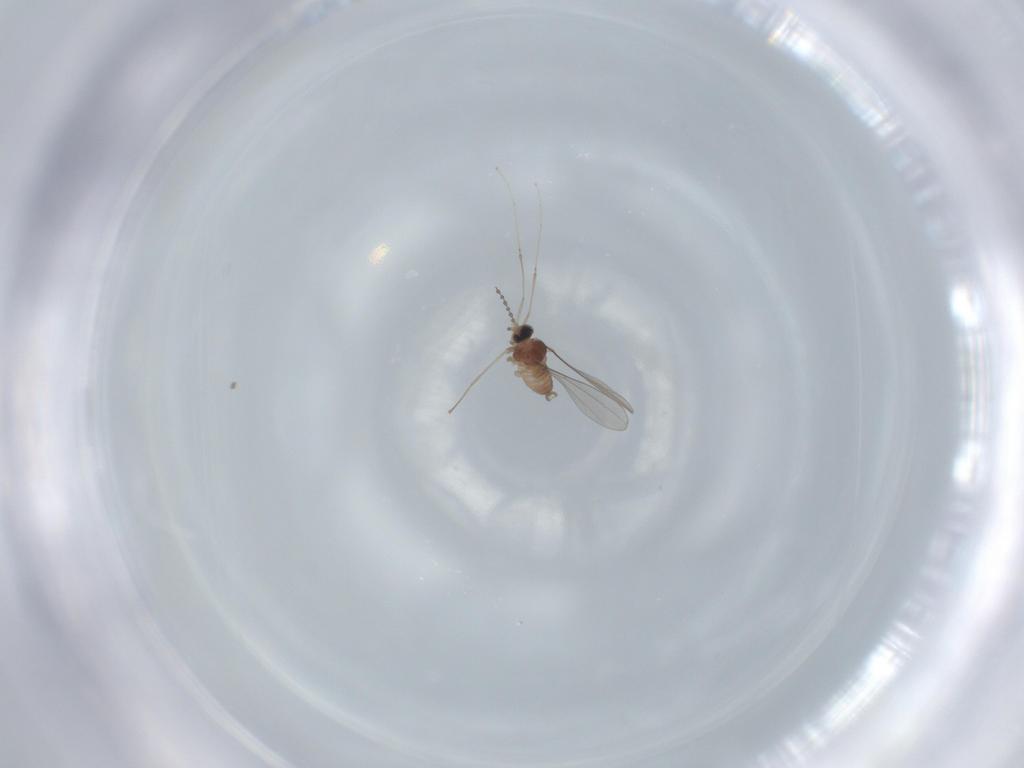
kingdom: Animalia
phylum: Arthropoda
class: Insecta
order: Diptera
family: Cecidomyiidae
